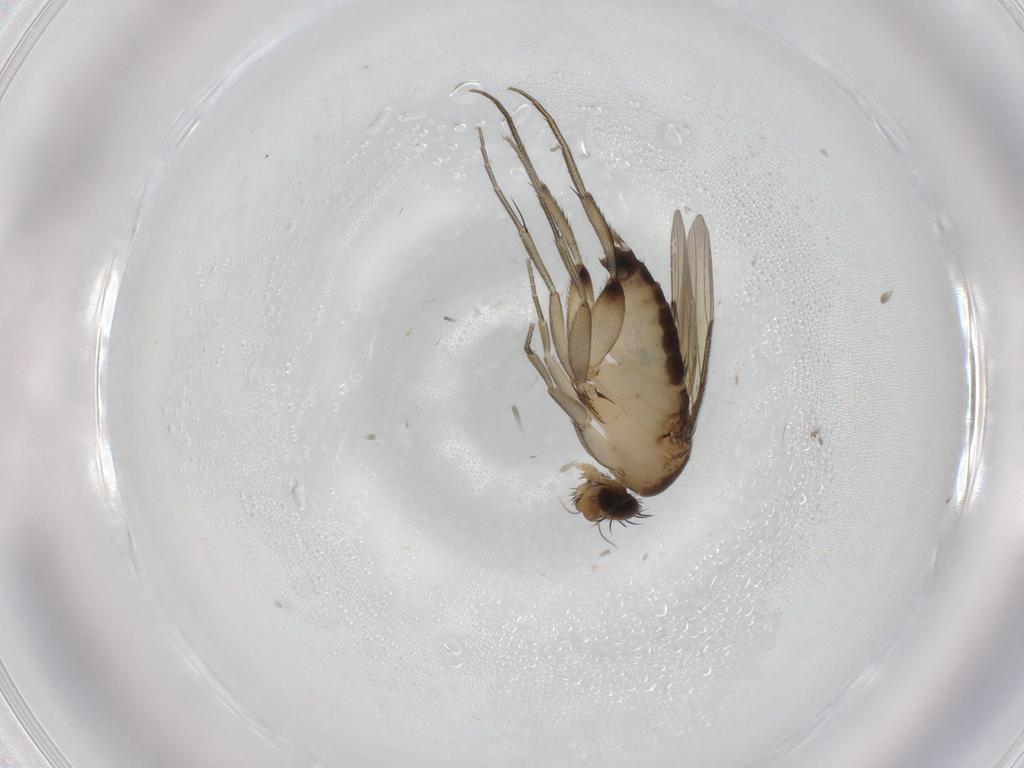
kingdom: Animalia
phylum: Arthropoda
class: Insecta
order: Diptera
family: Phoridae
